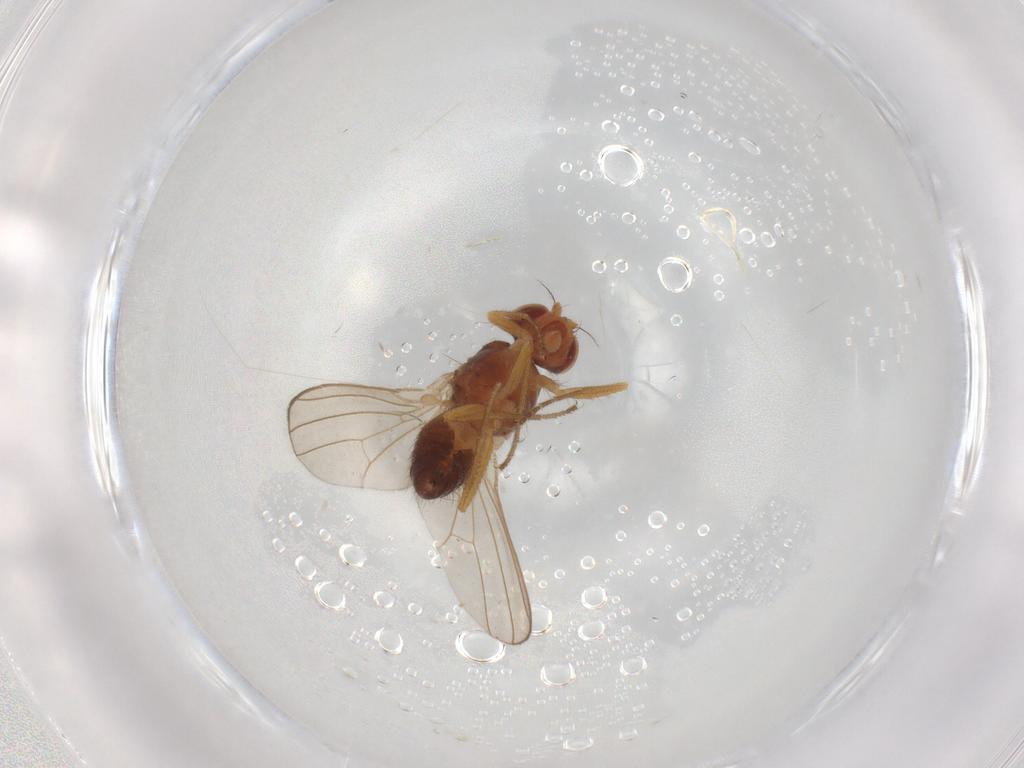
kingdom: Animalia
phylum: Arthropoda
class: Insecta
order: Diptera
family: Drosophilidae
